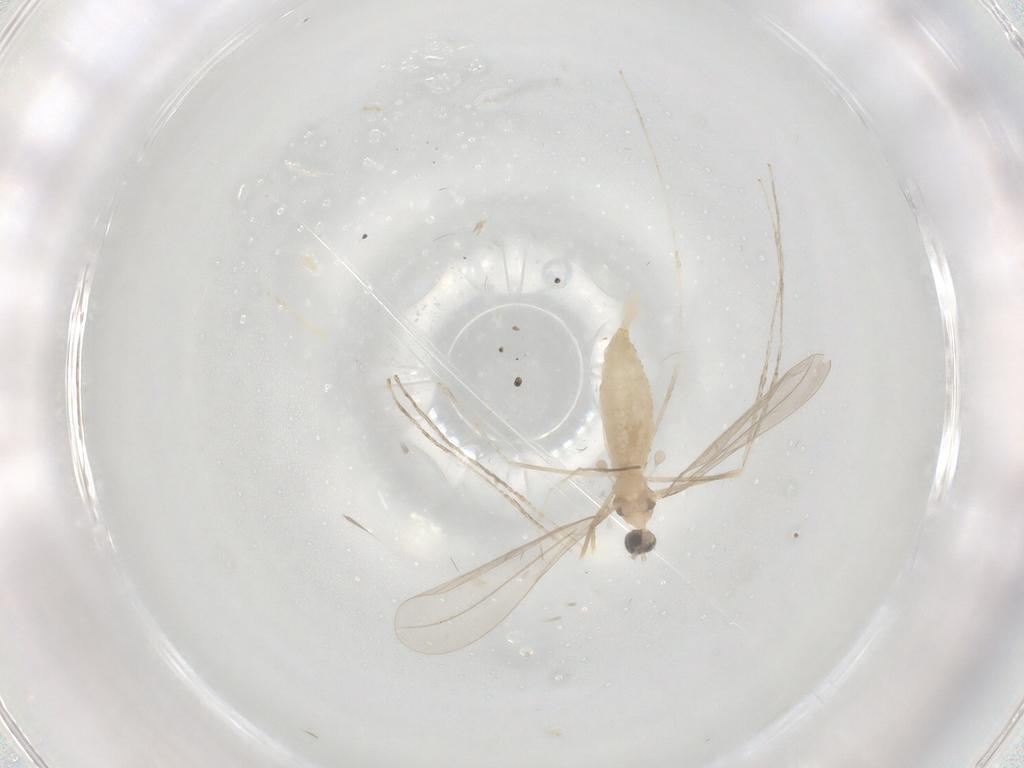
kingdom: Animalia
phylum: Arthropoda
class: Insecta
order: Diptera
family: Cecidomyiidae
